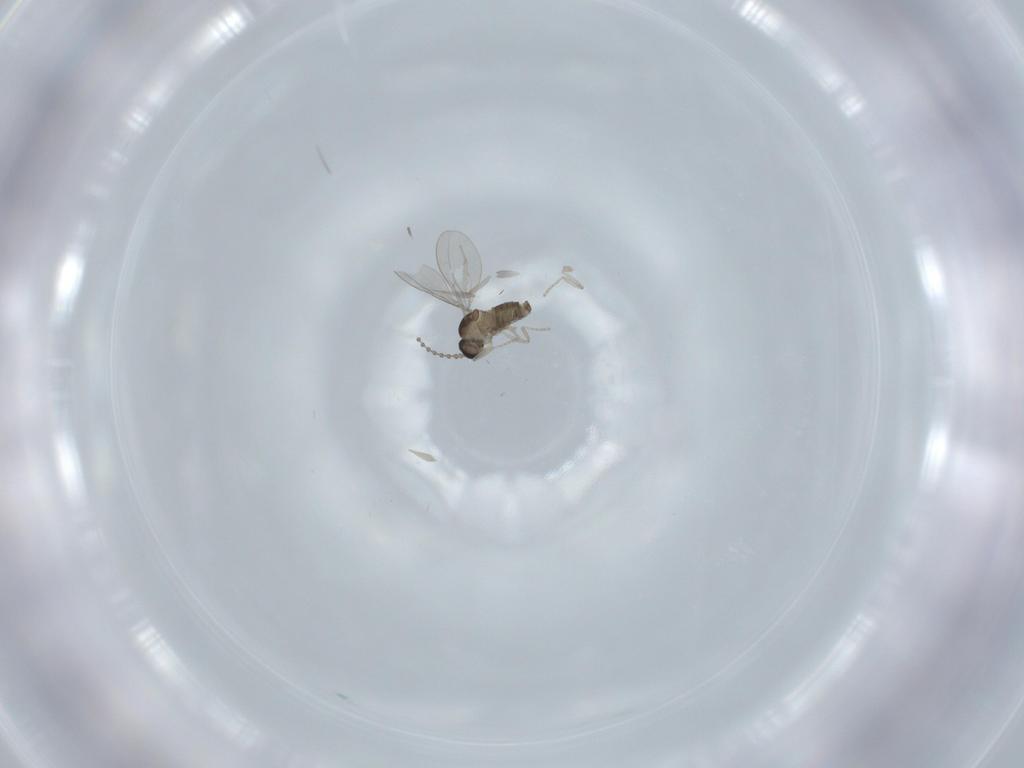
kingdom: Animalia
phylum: Arthropoda
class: Insecta
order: Diptera
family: Cecidomyiidae
